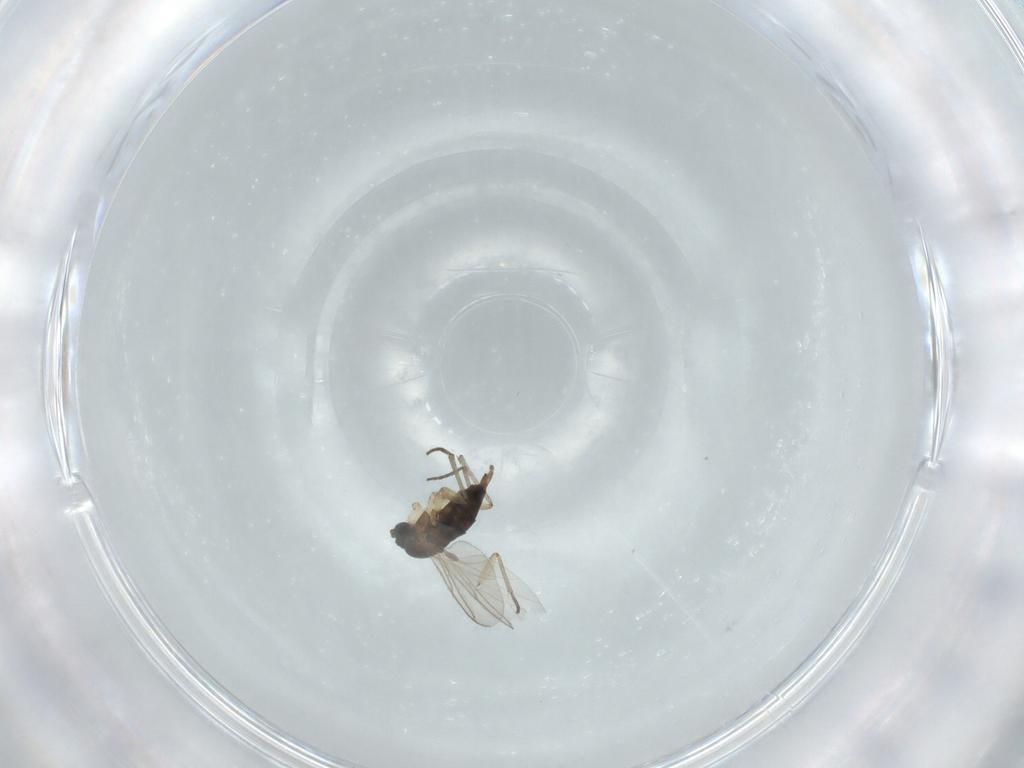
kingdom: Animalia
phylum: Arthropoda
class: Insecta
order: Diptera
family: Sciaridae
